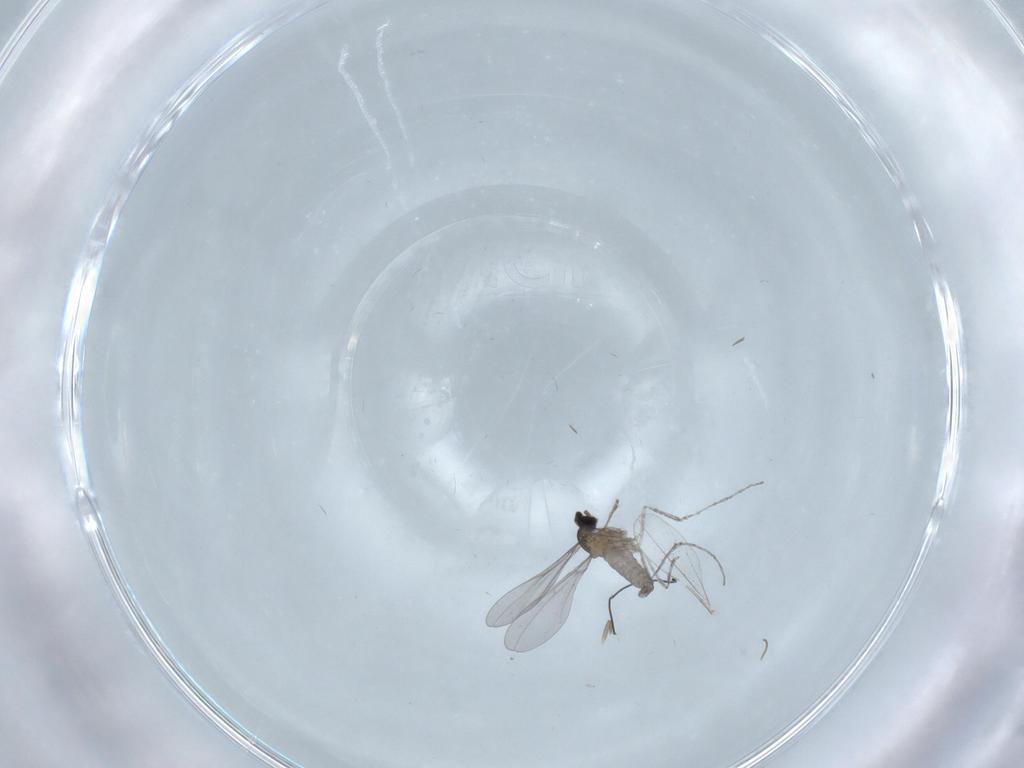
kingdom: Animalia
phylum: Arthropoda
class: Insecta
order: Diptera
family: Cecidomyiidae
